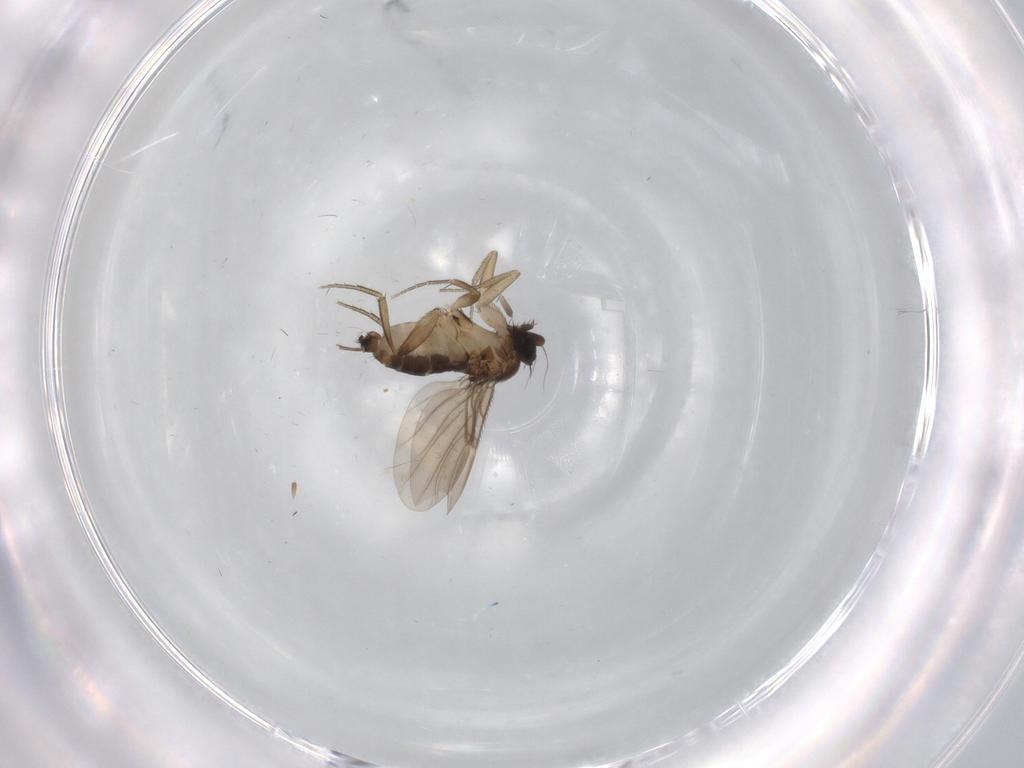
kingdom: Animalia
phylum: Arthropoda
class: Insecta
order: Diptera
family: Phoridae
